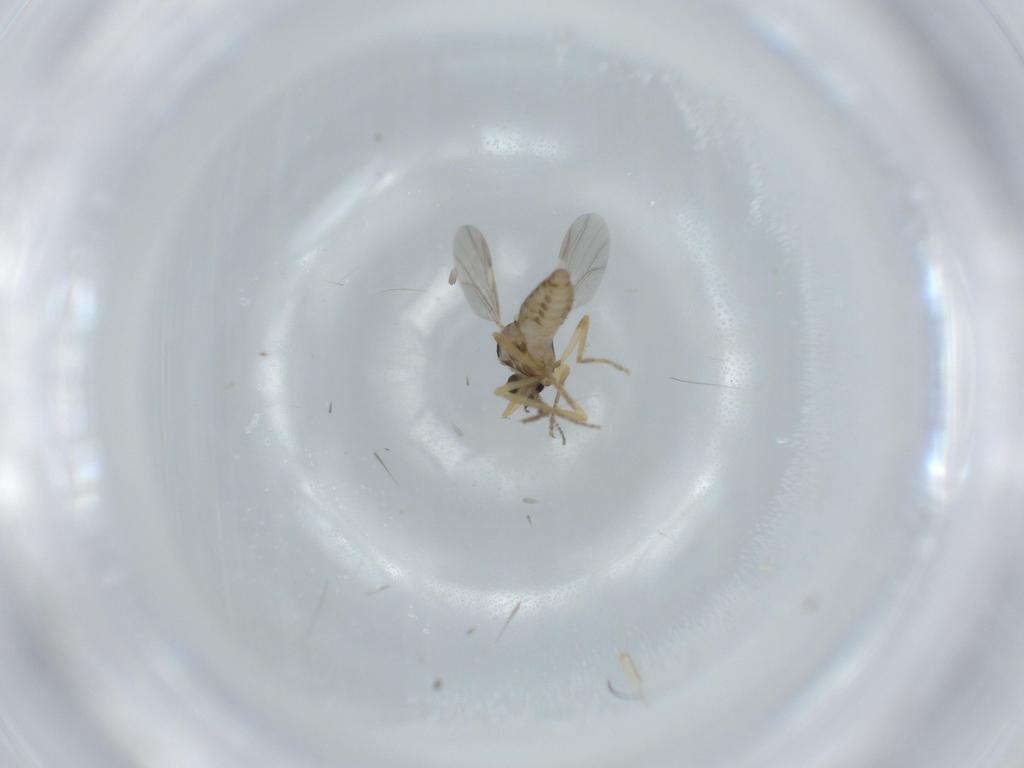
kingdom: Animalia
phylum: Arthropoda
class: Insecta
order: Diptera
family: Ceratopogonidae
